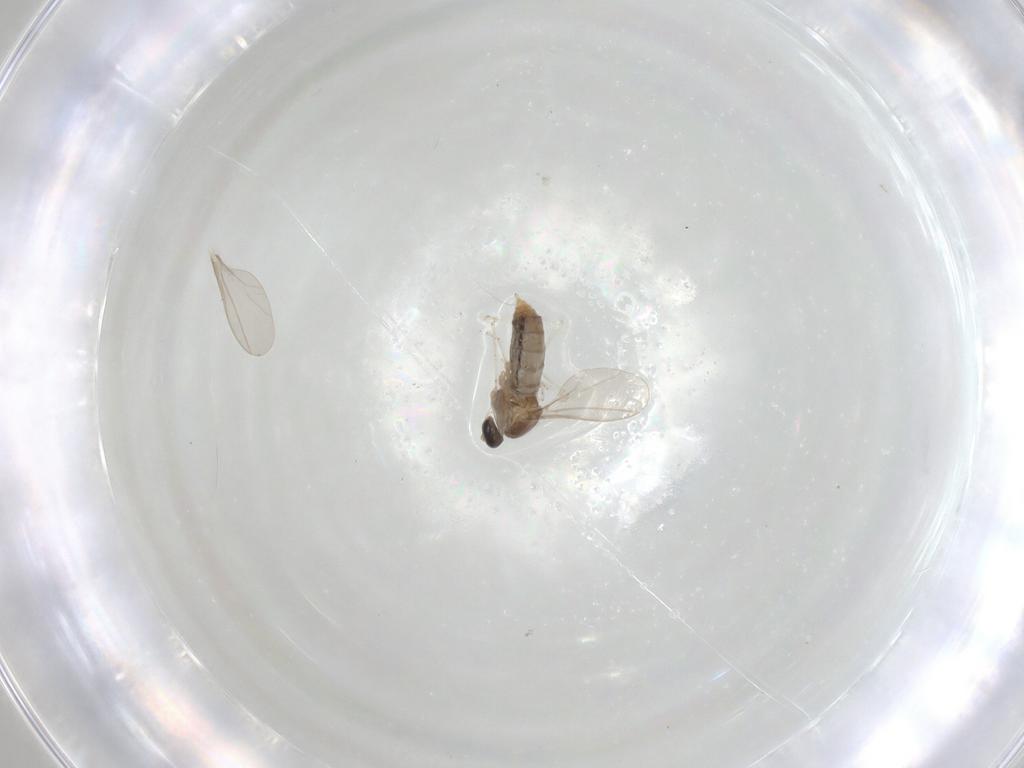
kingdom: Animalia
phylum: Arthropoda
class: Insecta
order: Diptera
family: Cecidomyiidae
